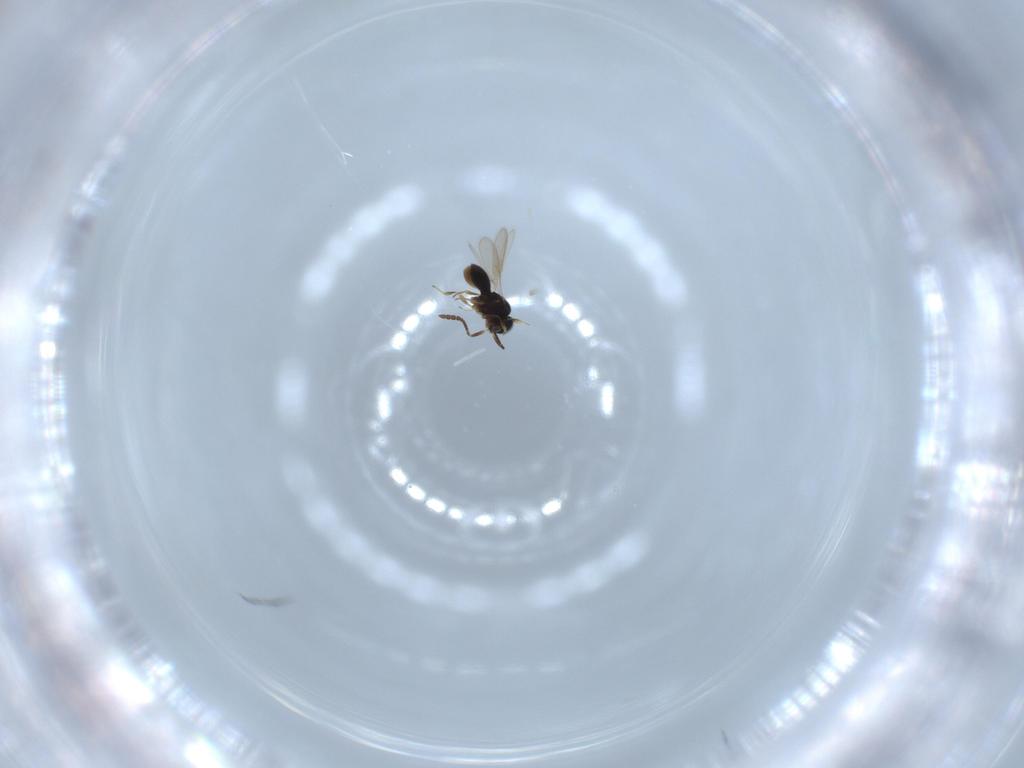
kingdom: Animalia
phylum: Arthropoda
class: Insecta
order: Hymenoptera
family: Scelionidae
